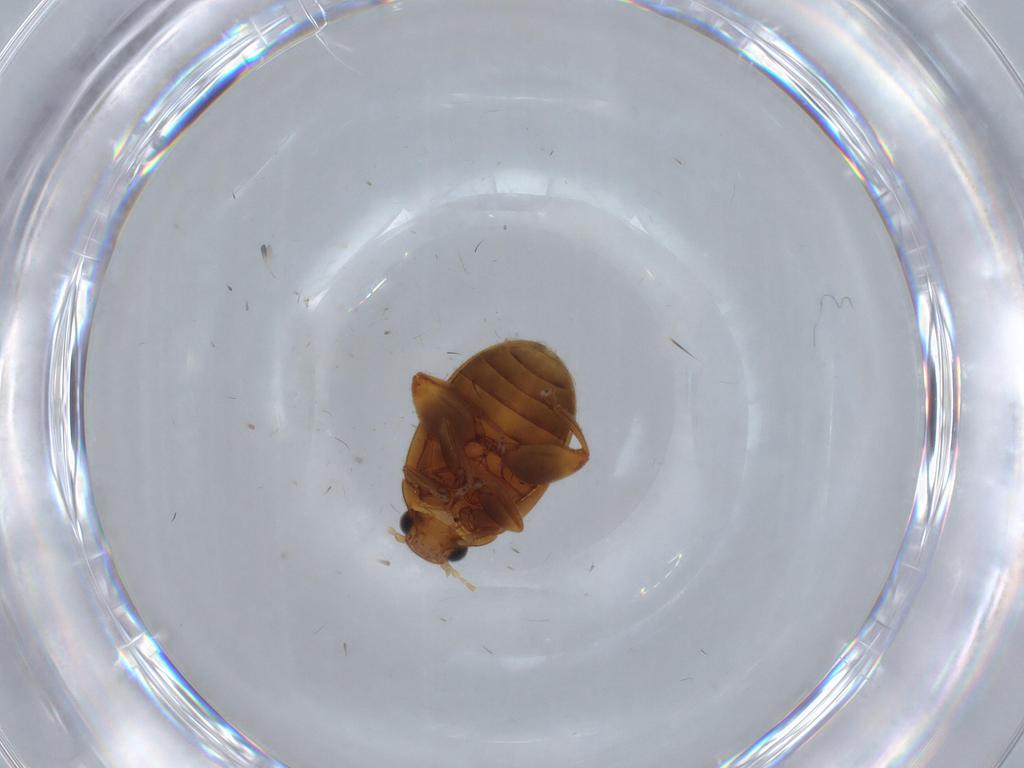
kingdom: Animalia
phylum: Arthropoda
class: Insecta
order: Coleoptera
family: Scirtidae
